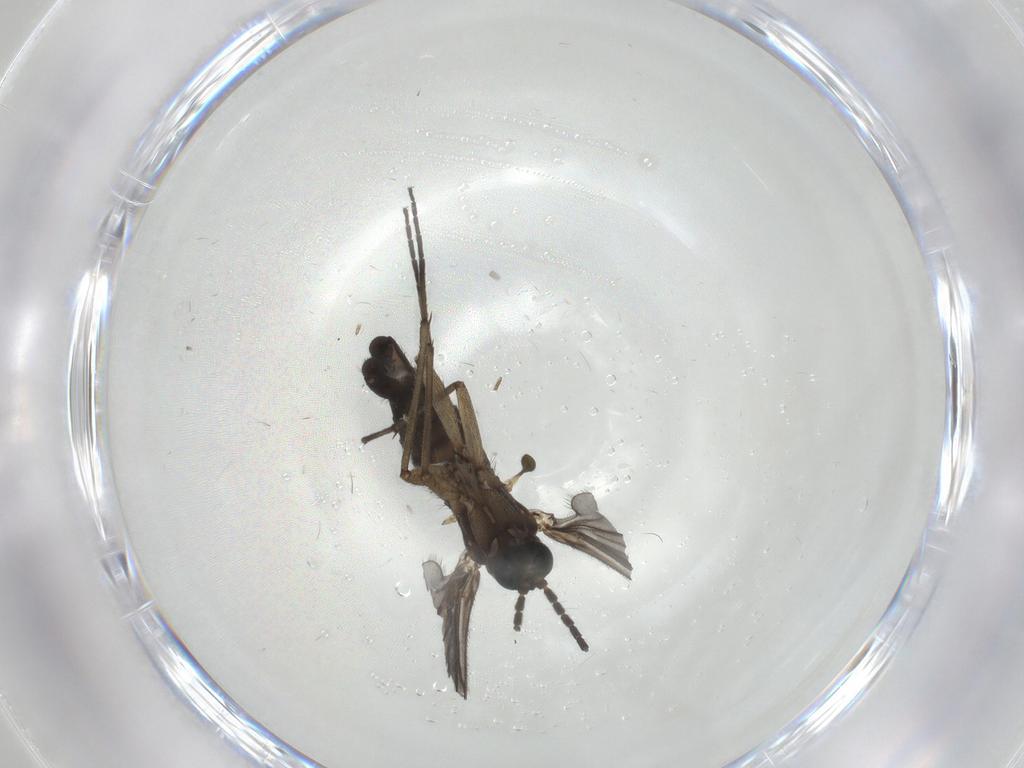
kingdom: Animalia
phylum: Arthropoda
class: Insecta
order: Diptera
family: Sciaridae
